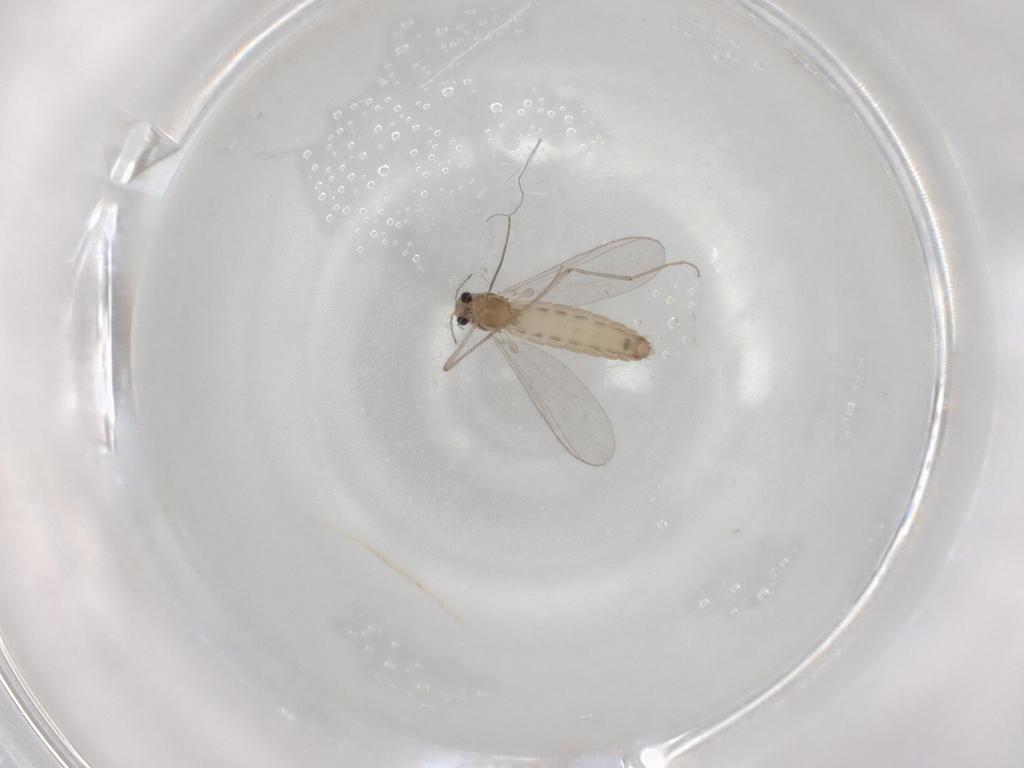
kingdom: Animalia
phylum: Arthropoda
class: Insecta
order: Diptera
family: Chironomidae
